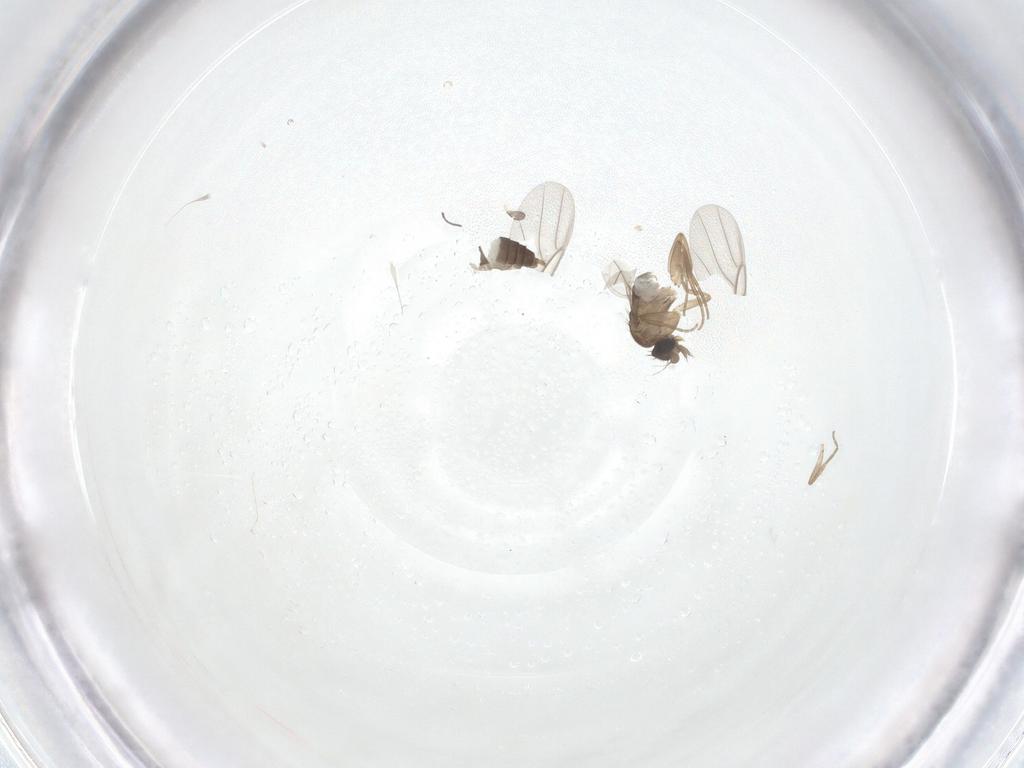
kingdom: Animalia
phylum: Arthropoda
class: Insecta
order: Diptera
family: Phoridae
